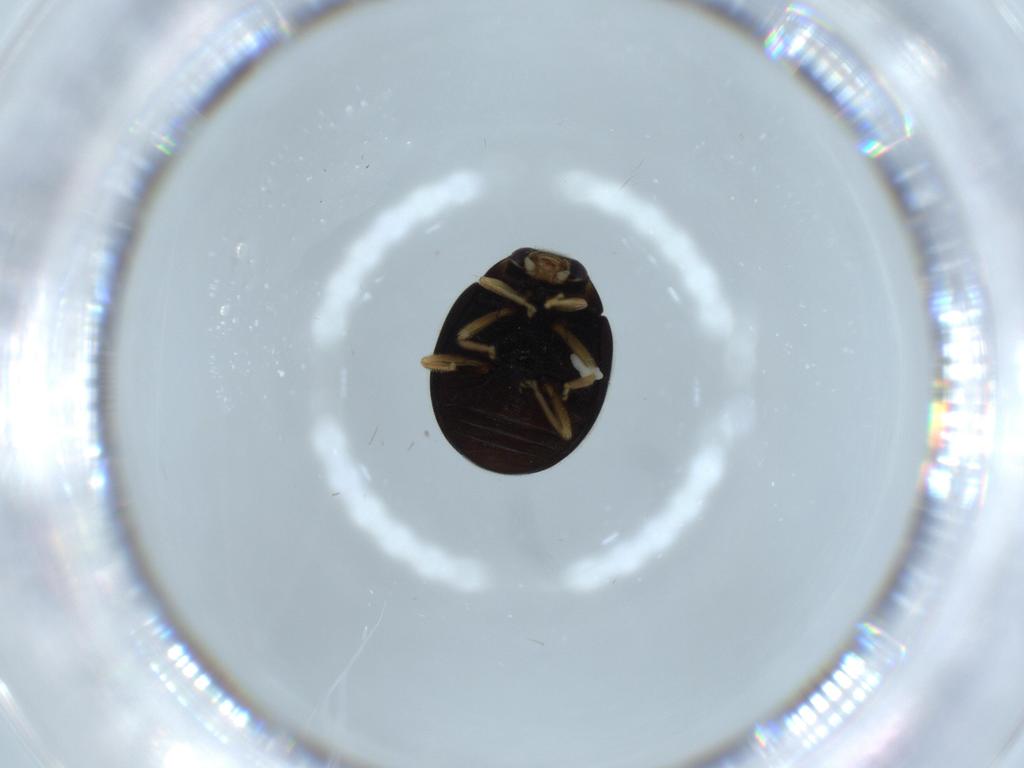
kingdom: Animalia
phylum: Arthropoda
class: Insecta
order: Coleoptera
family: Coccinellidae
